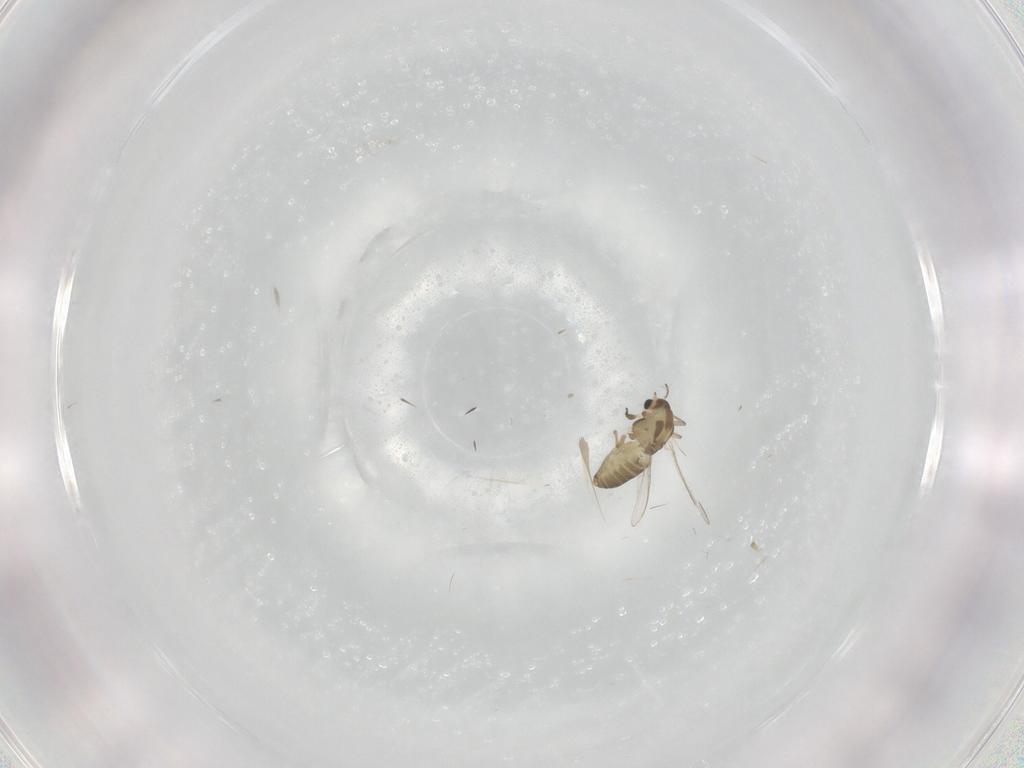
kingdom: Animalia
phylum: Arthropoda
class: Insecta
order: Diptera
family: Chironomidae
